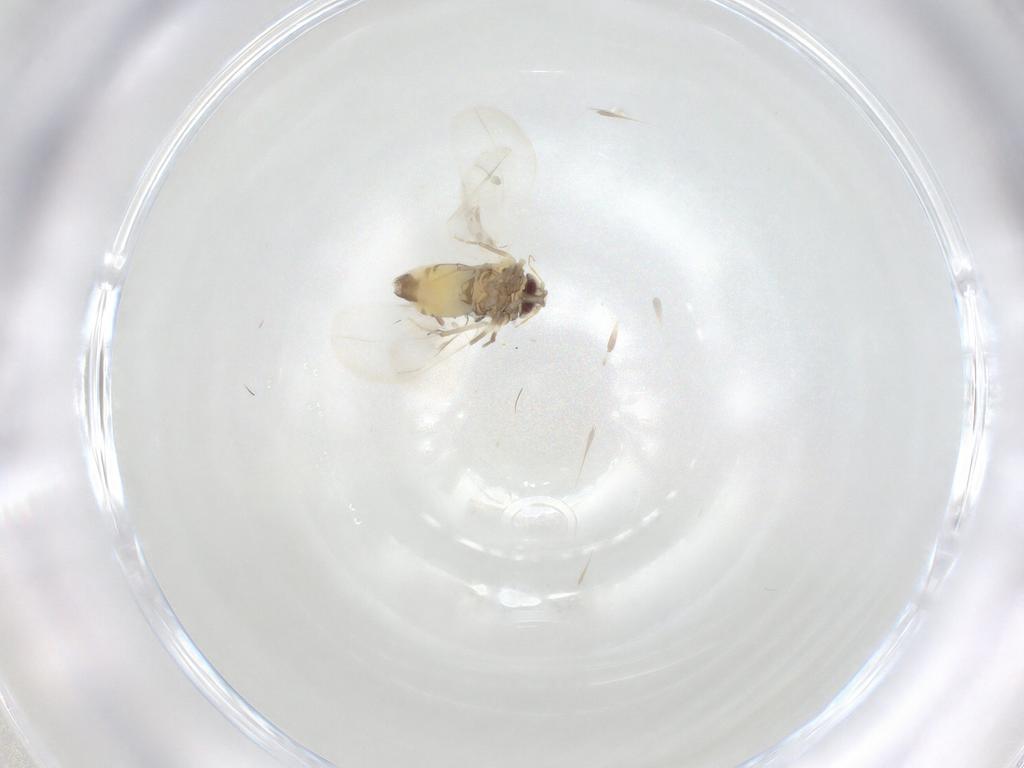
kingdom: Animalia
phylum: Arthropoda
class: Insecta
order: Hemiptera
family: Aleyrodidae
